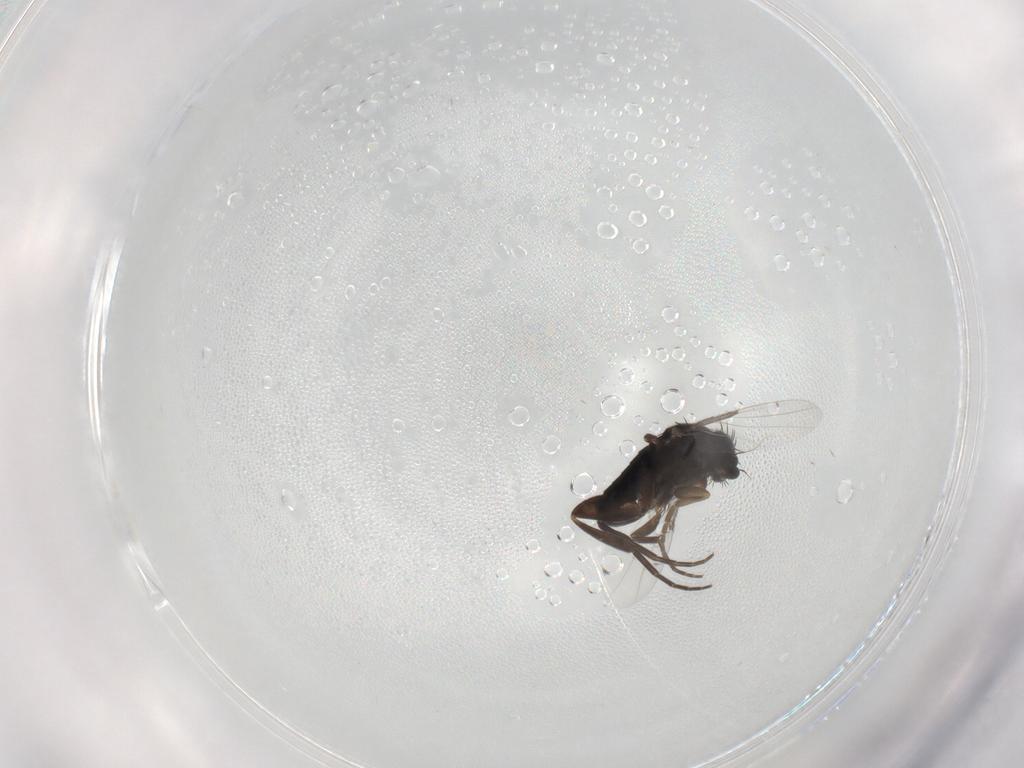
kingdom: Animalia
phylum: Arthropoda
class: Insecta
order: Diptera
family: Phoridae
